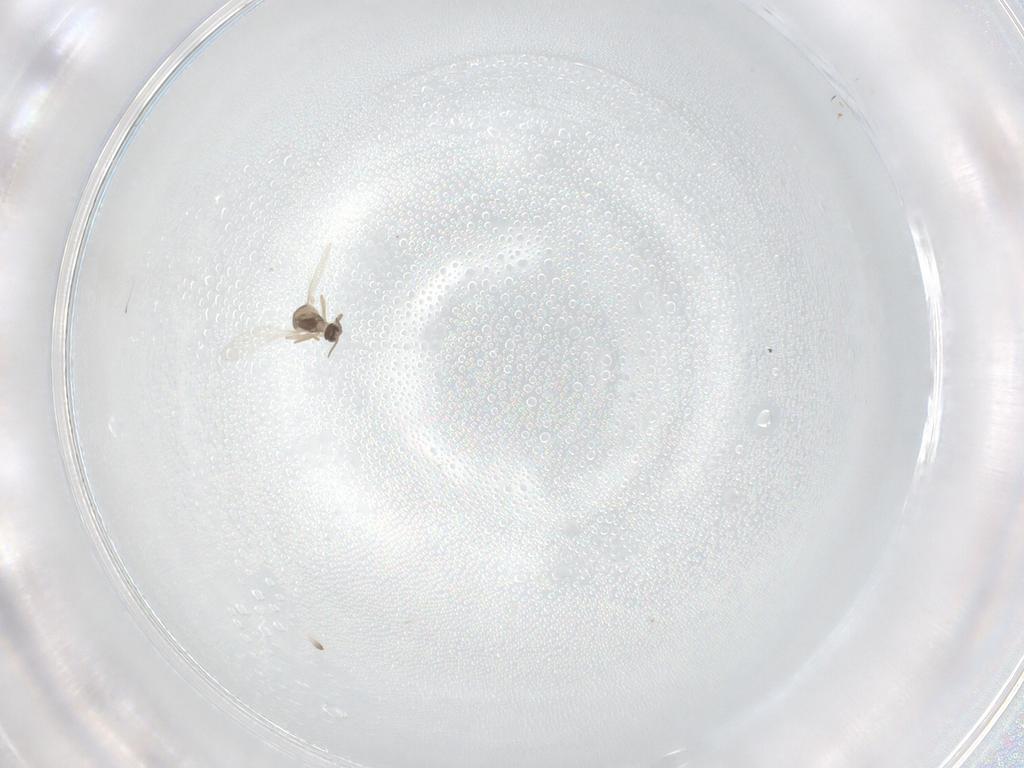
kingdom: Animalia
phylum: Arthropoda
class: Insecta
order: Diptera
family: Cecidomyiidae
